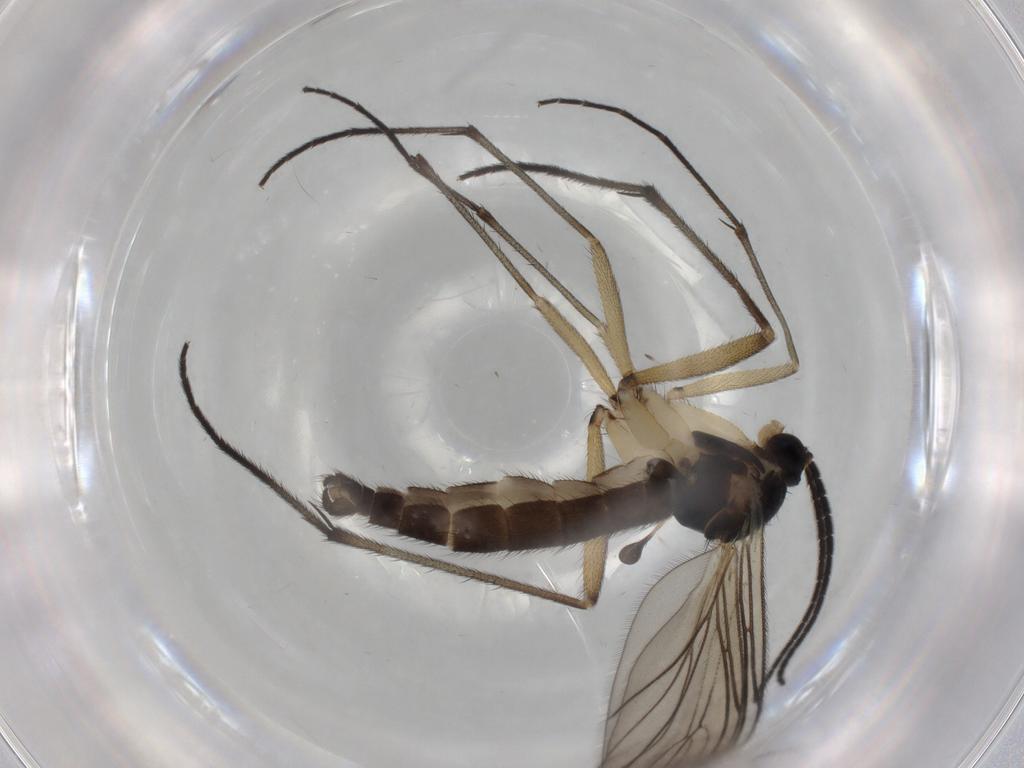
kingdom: Animalia
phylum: Arthropoda
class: Insecta
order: Diptera
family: Sciaridae
